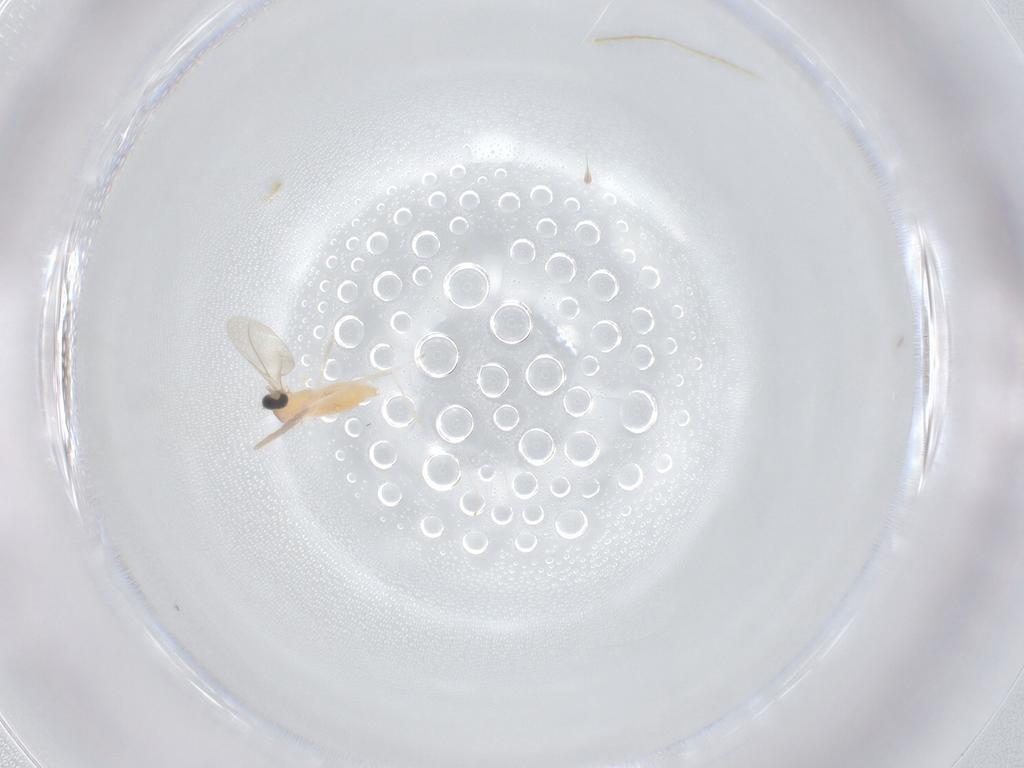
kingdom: Animalia
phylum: Arthropoda
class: Insecta
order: Diptera
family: Cecidomyiidae
